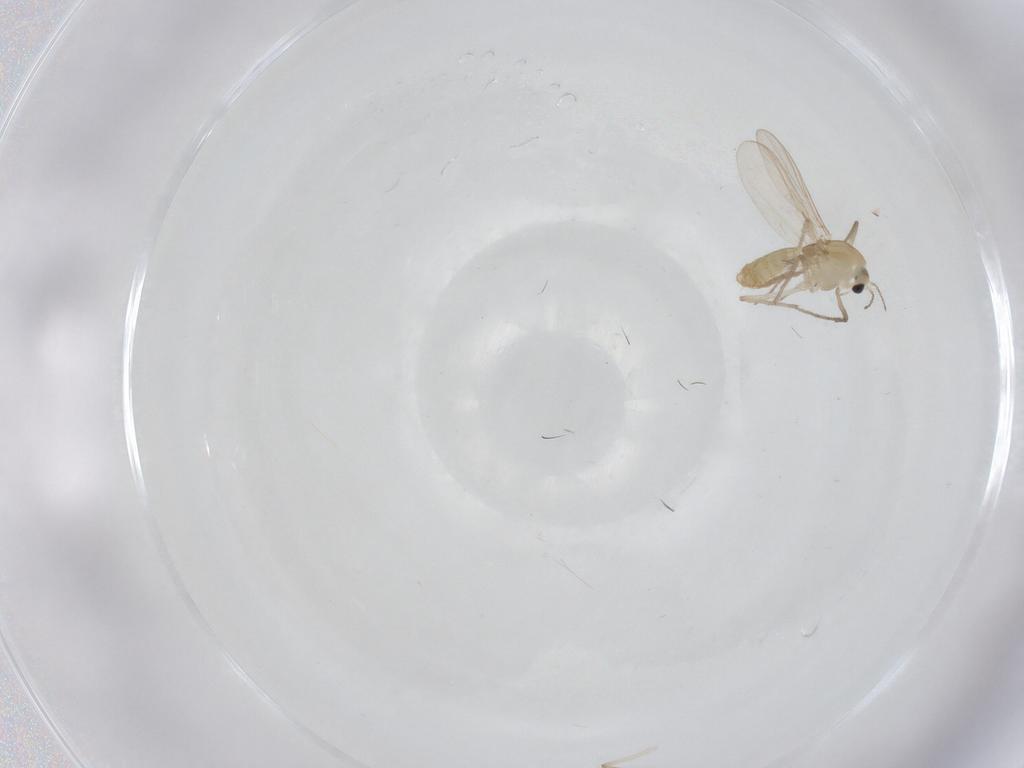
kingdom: Animalia
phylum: Arthropoda
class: Insecta
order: Diptera
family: Chironomidae
